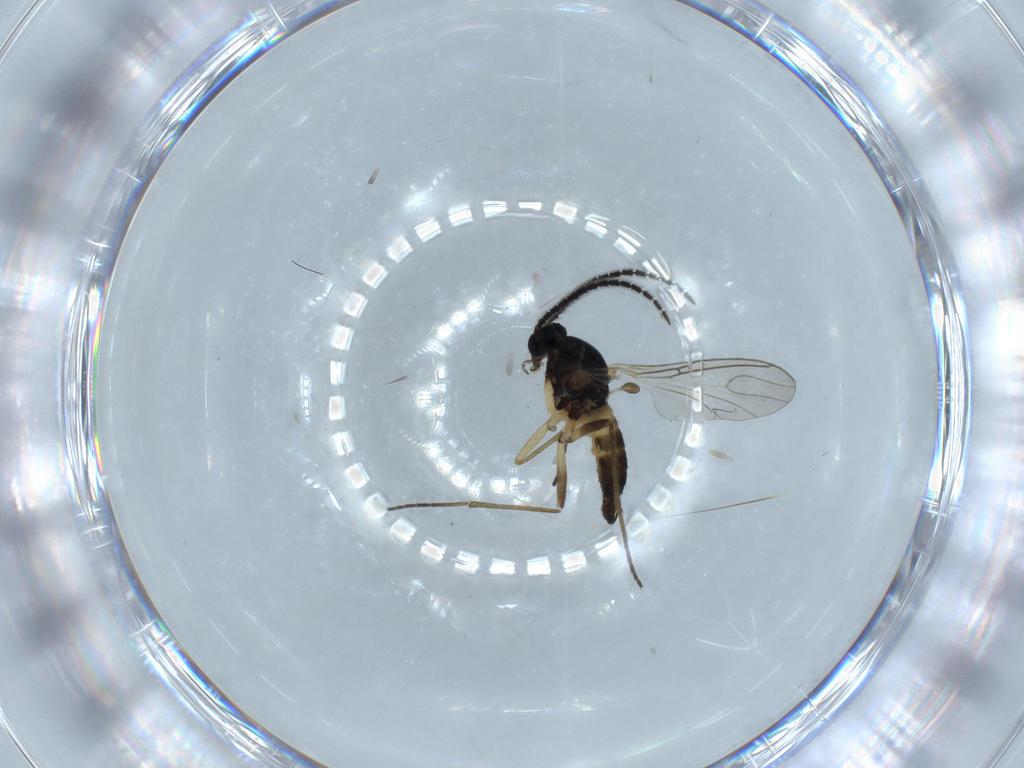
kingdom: Animalia
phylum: Arthropoda
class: Insecta
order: Diptera
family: Sciaridae
